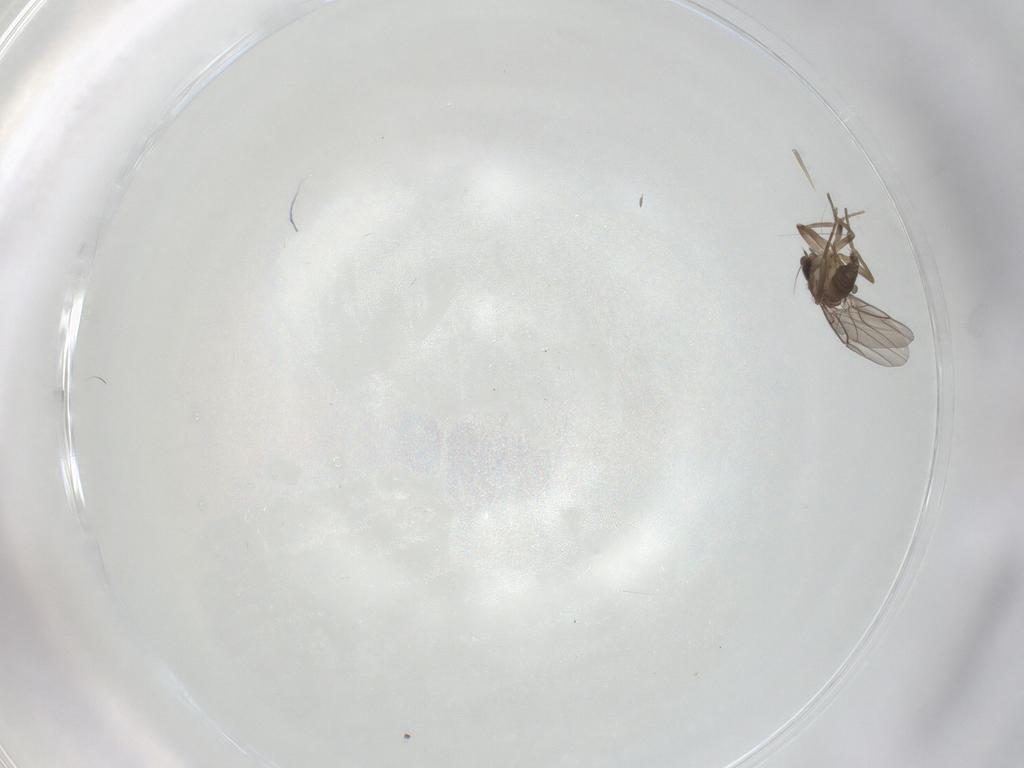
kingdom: Animalia
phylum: Arthropoda
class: Insecta
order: Diptera
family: Phoridae
